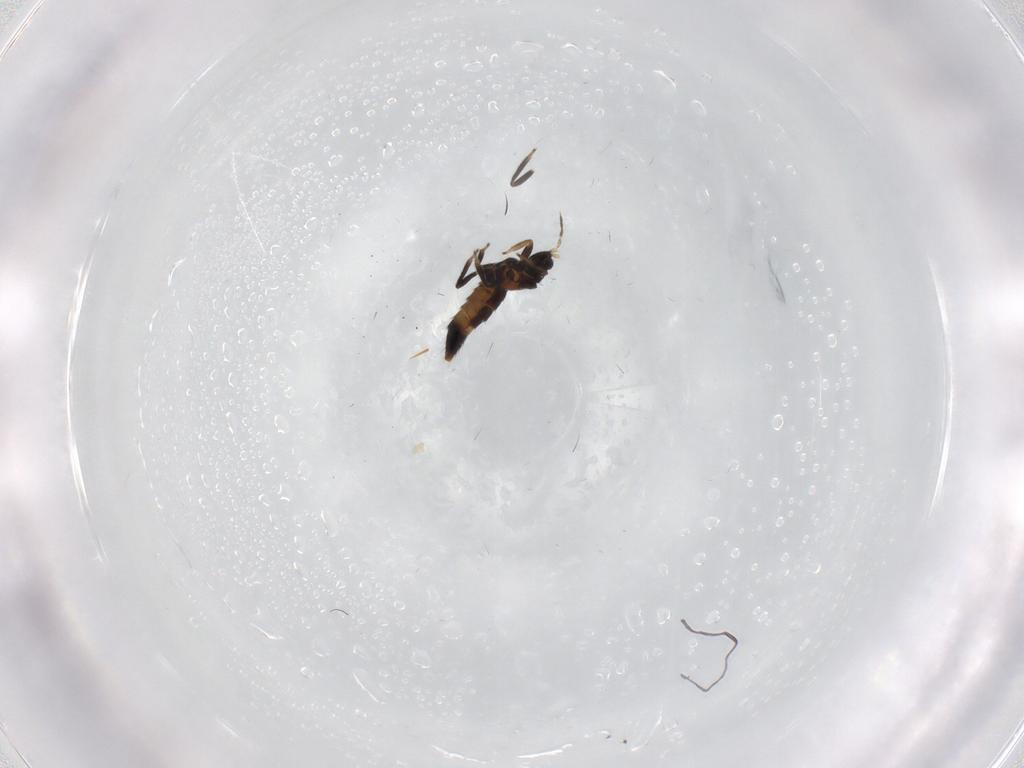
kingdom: Animalia
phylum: Arthropoda
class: Insecta
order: Thysanoptera
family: Thripidae
